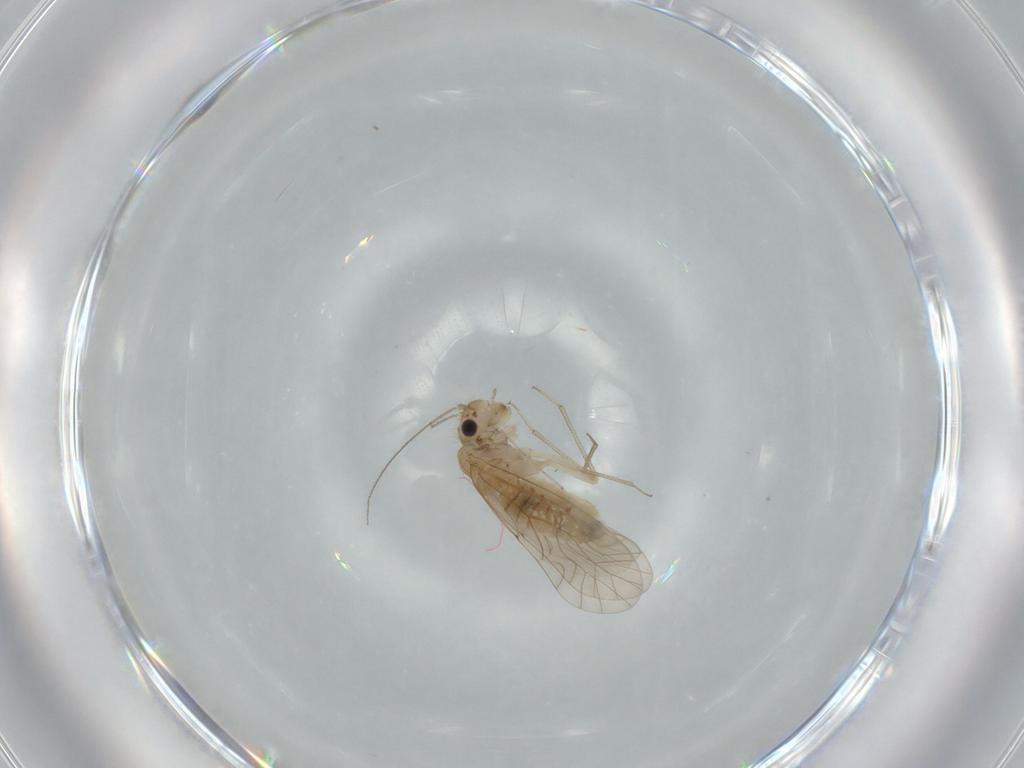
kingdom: Animalia
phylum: Arthropoda
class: Insecta
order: Psocodea
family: Lachesillidae
